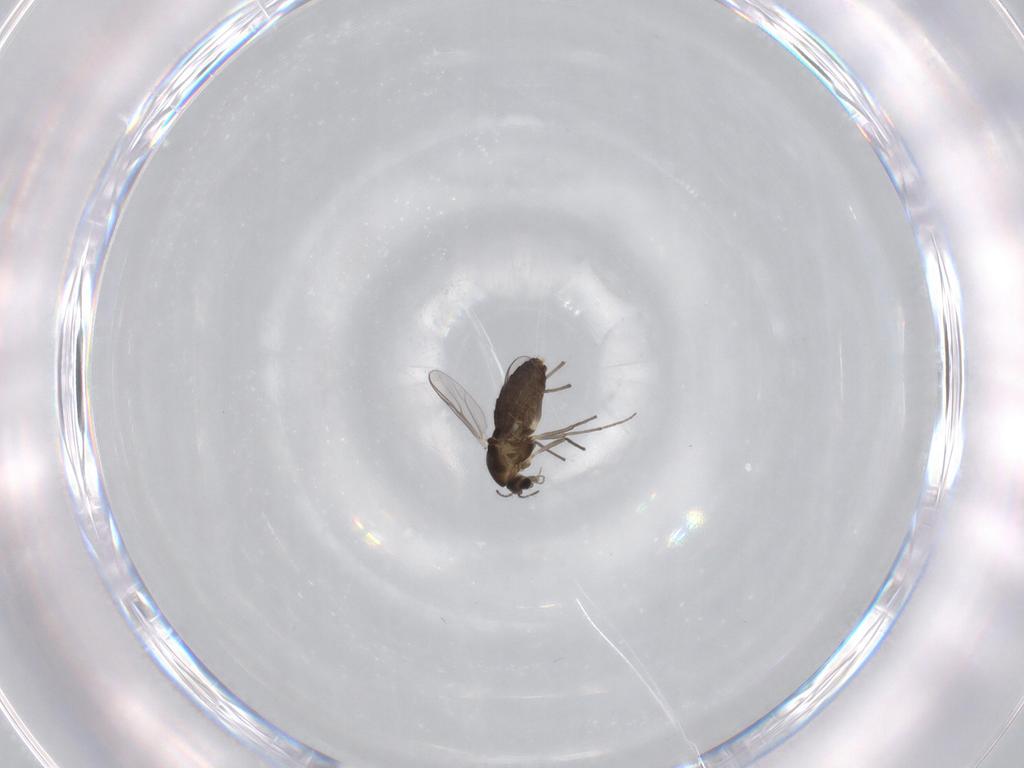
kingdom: Animalia
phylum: Arthropoda
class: Insecta
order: Diptera
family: Chironomidae
